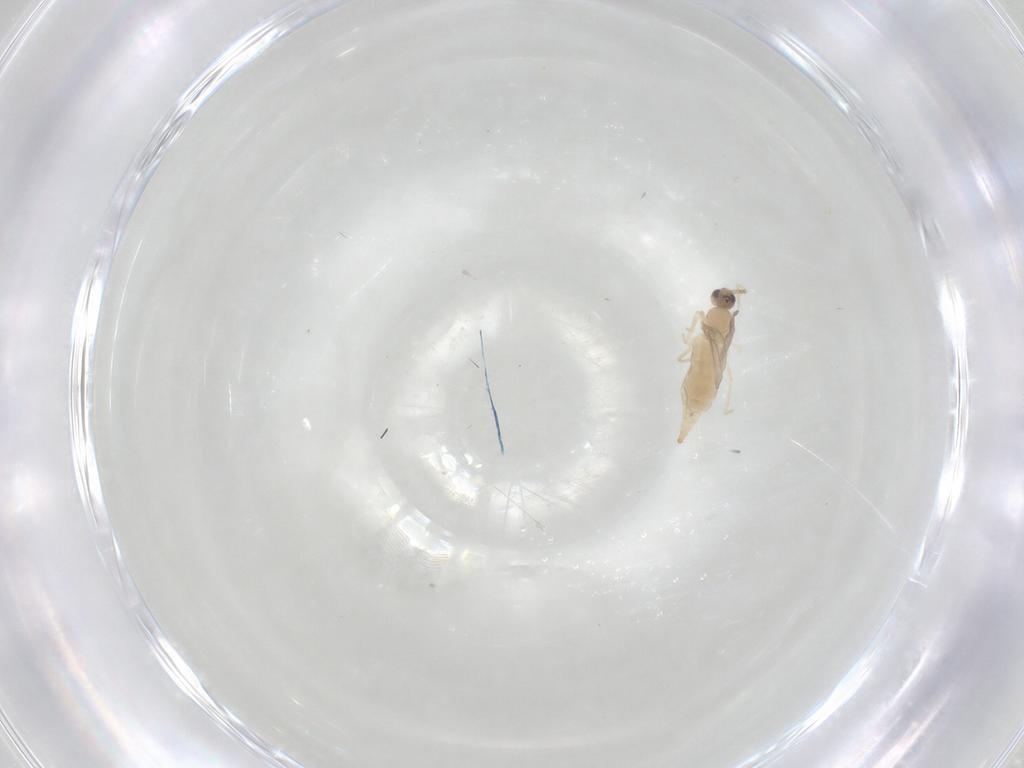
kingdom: Animalia
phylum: Arthropoda
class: Insecta
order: Diptera
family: Cecidomyiidae
